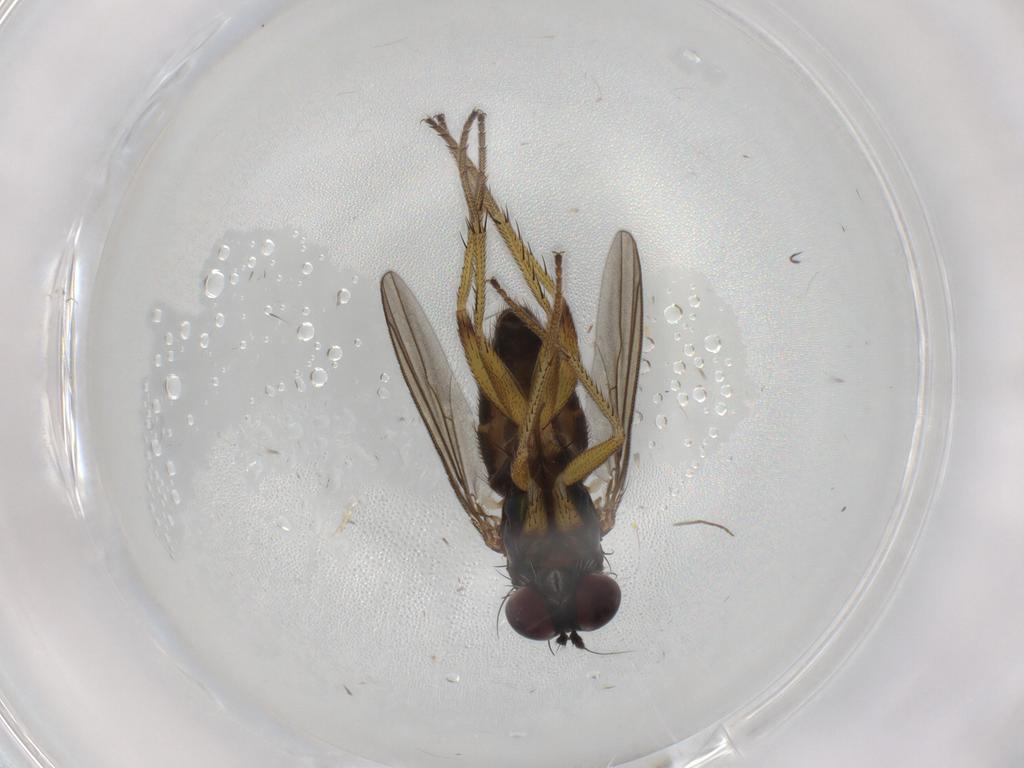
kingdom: Animalia
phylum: Arthropoda
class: Insecta
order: Diptera
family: Dolichopodidae
